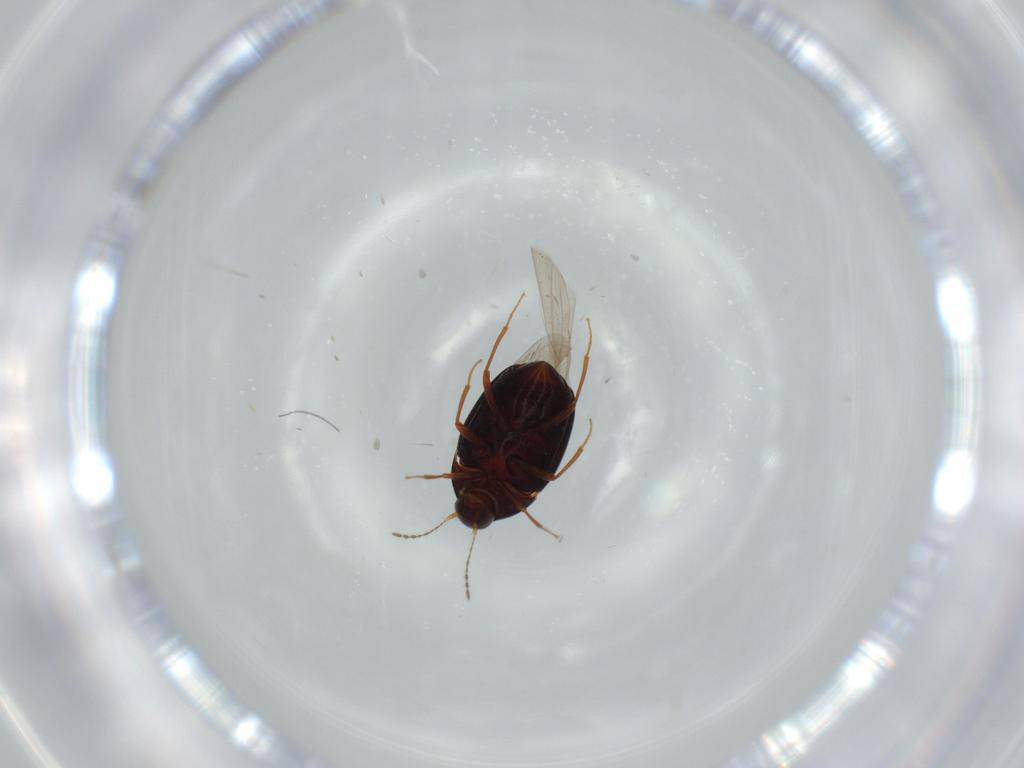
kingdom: Animalia
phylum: Arthropoda
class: Insecta
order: Coleoptera
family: Staphylinidae
